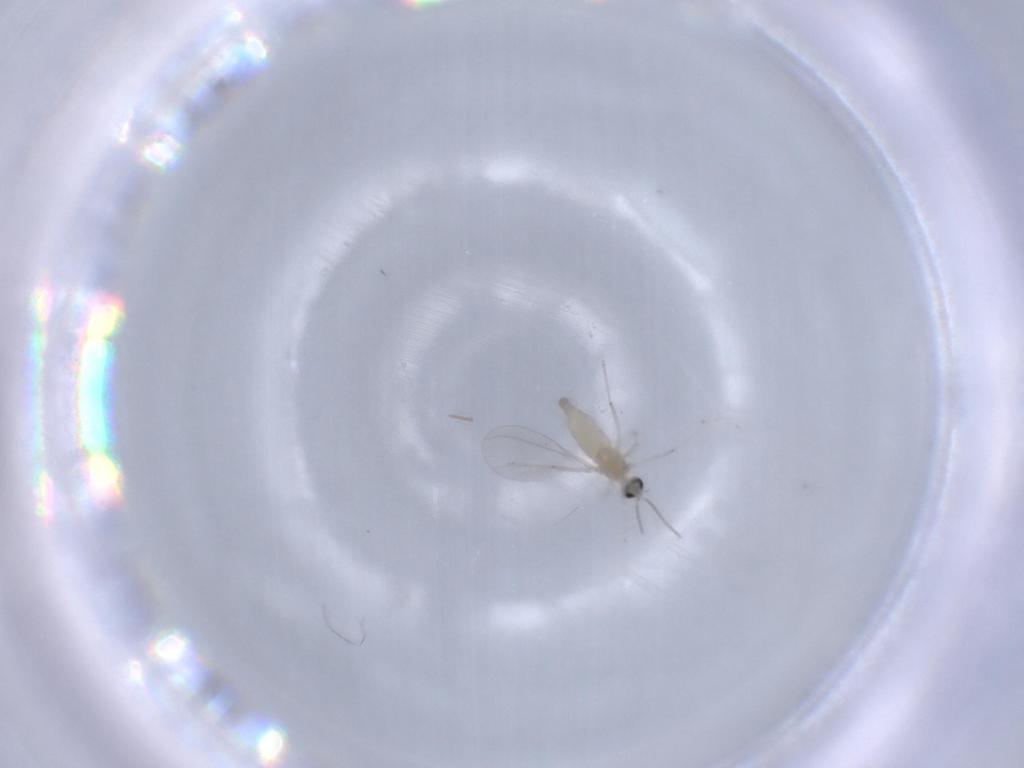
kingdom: Animalia
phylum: Arthropoda
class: Insecta
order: Diptera
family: Cecidomyiidae
